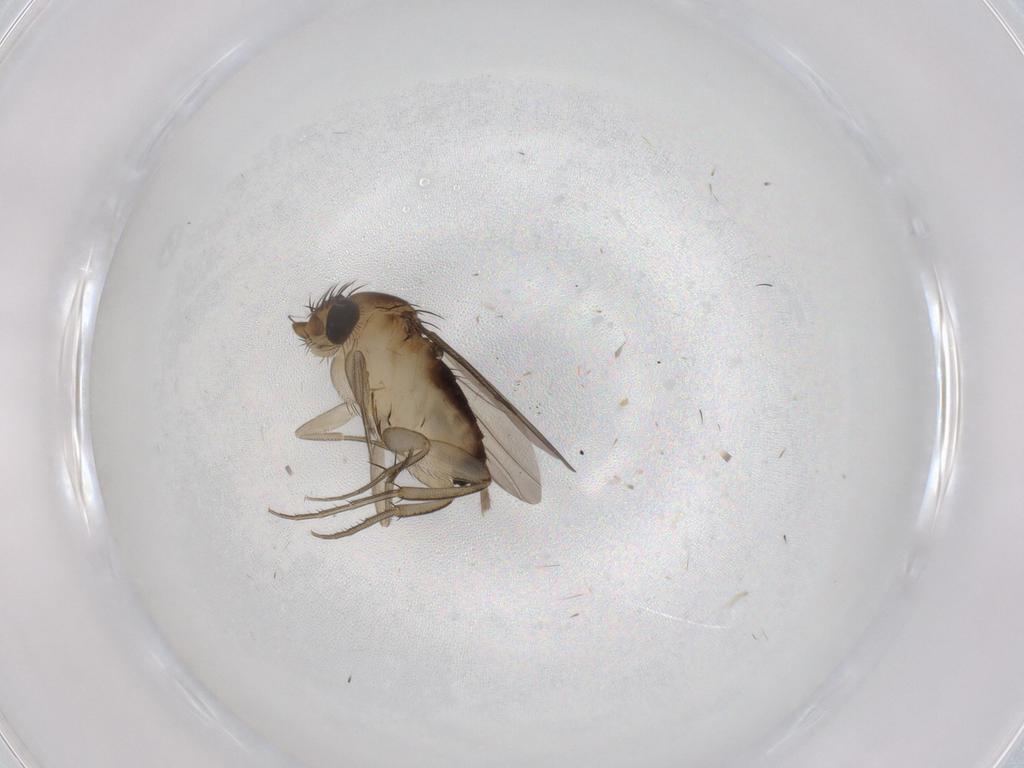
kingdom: Animalia
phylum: Arthropoda
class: Insecta
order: Diptera
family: Phoridae
